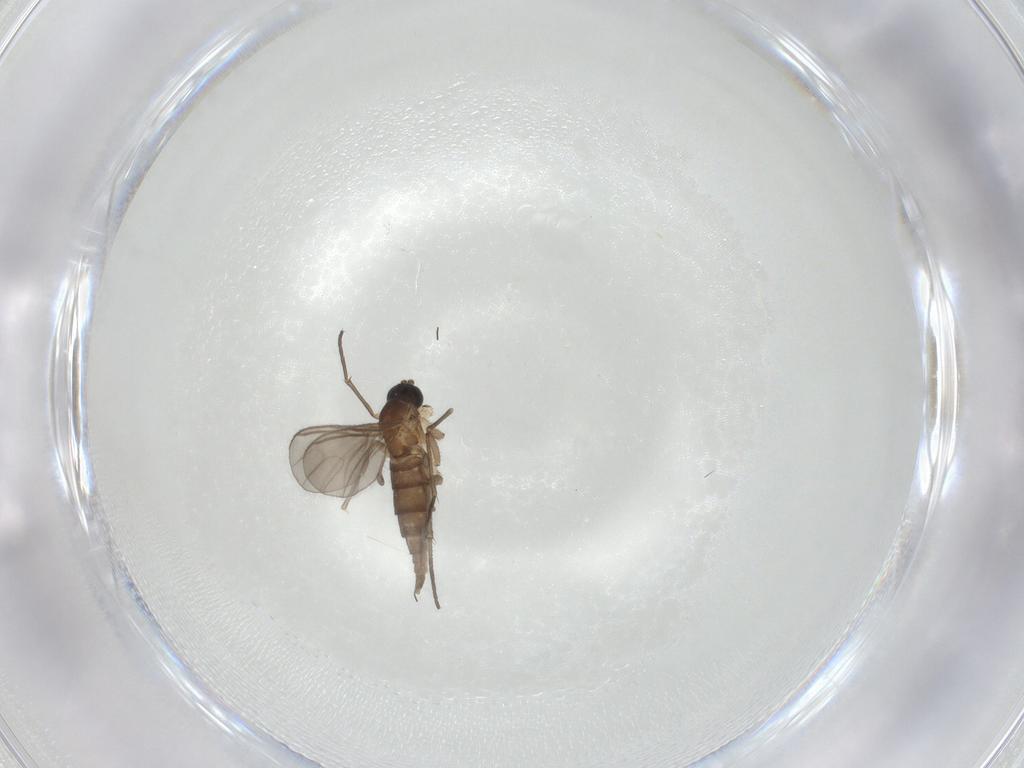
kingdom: Animalia
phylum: Arthropoda
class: Insecta
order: Diptera
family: Sciaridae
